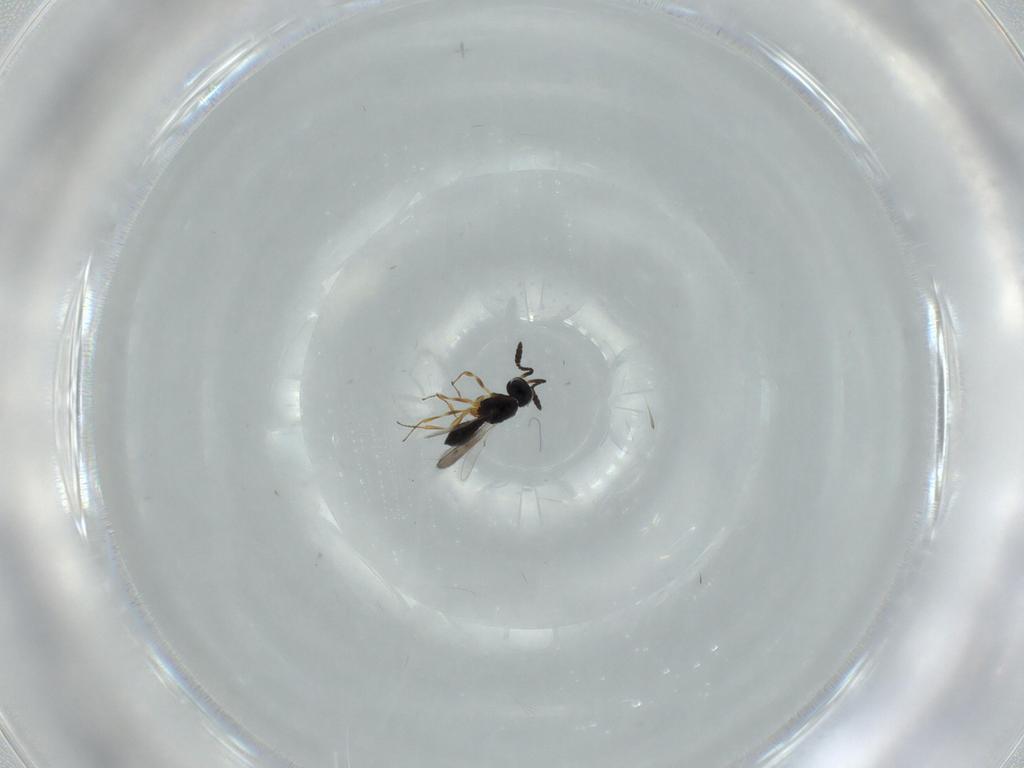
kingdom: Animalia
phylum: Arthropoda
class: Insecta
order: Hymenoptera
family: Scelionidae
